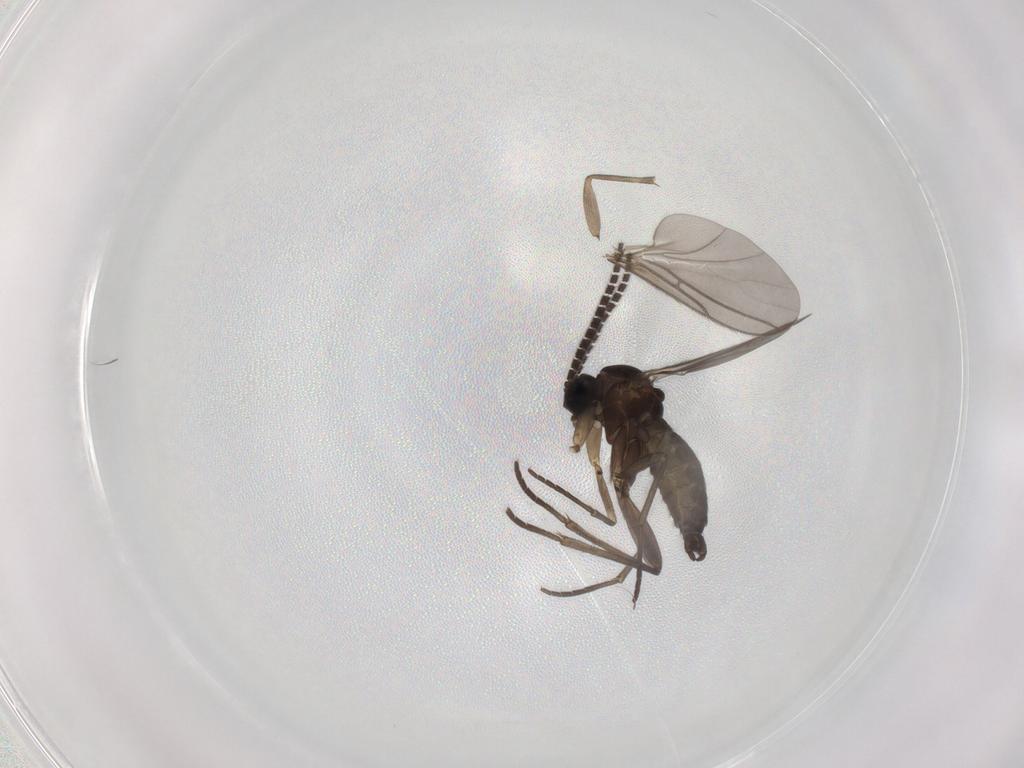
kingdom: Animalia
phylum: Arthropoda
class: Insecta
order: Diptera
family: Sciaridae
